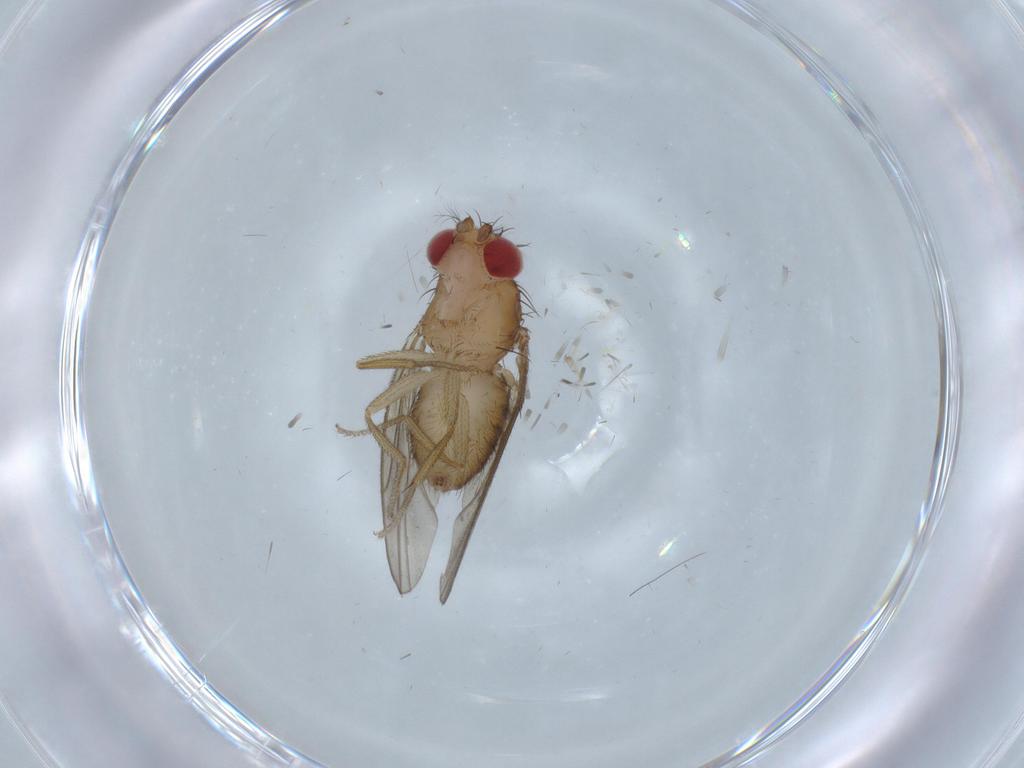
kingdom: Animalia
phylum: Arthropoda
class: Insecta
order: Diptera
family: Drosophilidae
